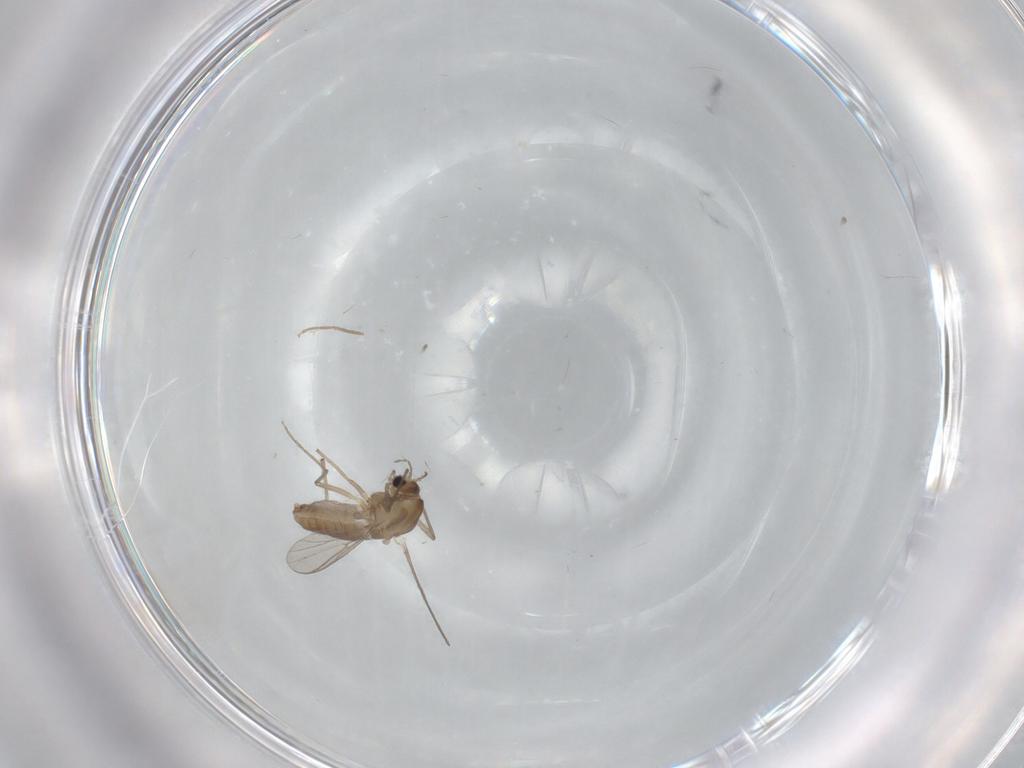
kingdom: Animalia
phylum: Arthropoda
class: Insecta
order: Diptera
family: Chironomidae
